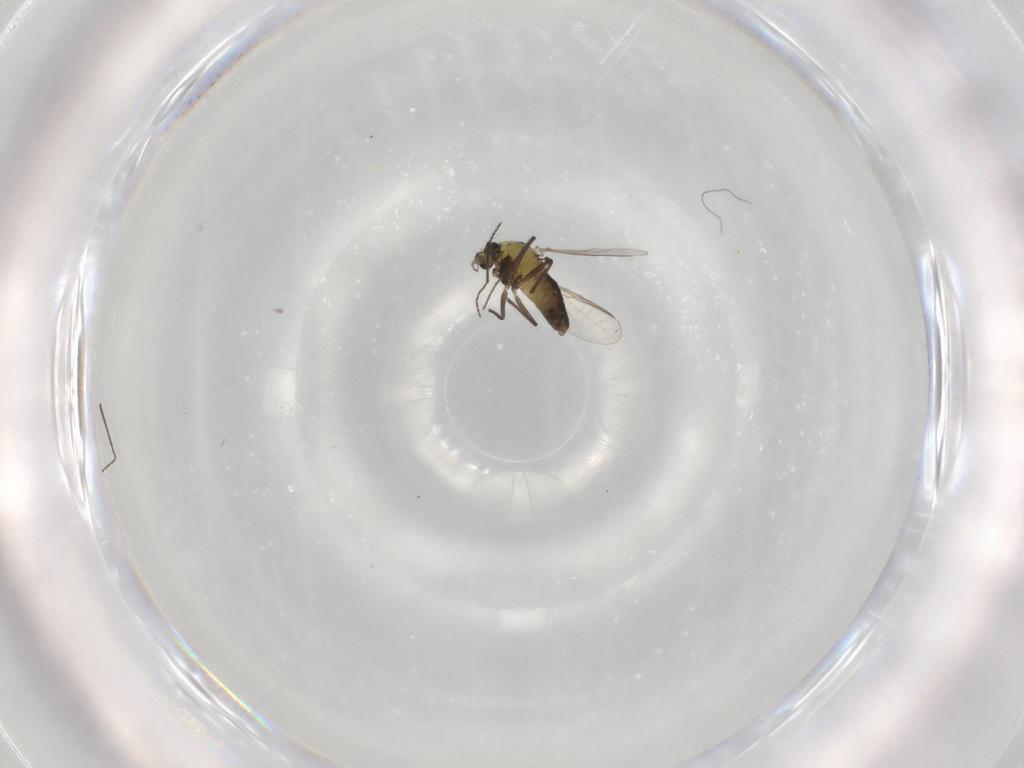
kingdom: Animalia
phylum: Arthropoda
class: Insecta
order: Diptera
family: Chironomidae
